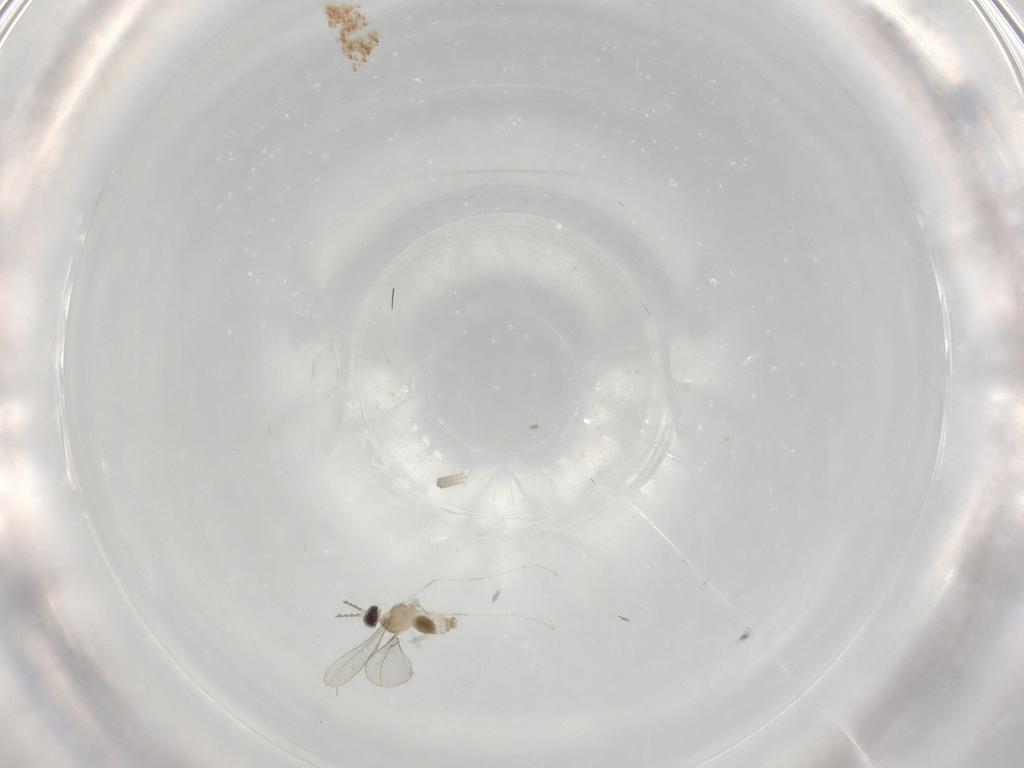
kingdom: Animalia
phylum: Arthropoda
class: Insecta
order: Diptera
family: Limoniidae
